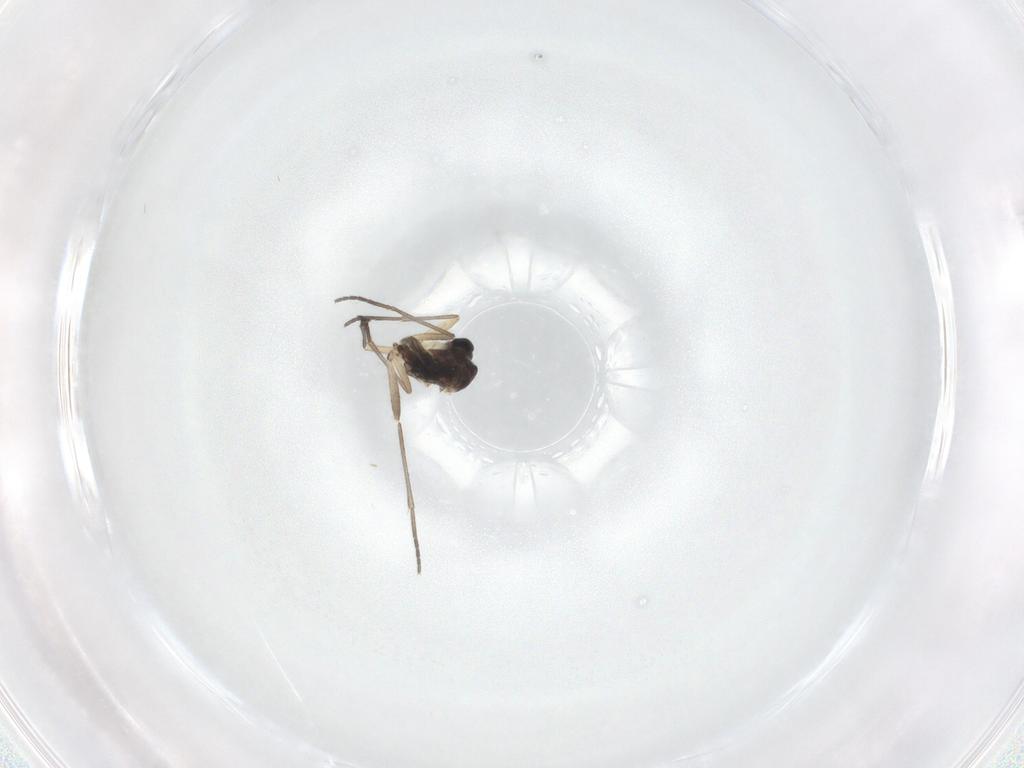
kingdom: Animalia
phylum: Arthropoda
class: Insecta
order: Diptera
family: Sciaridae
